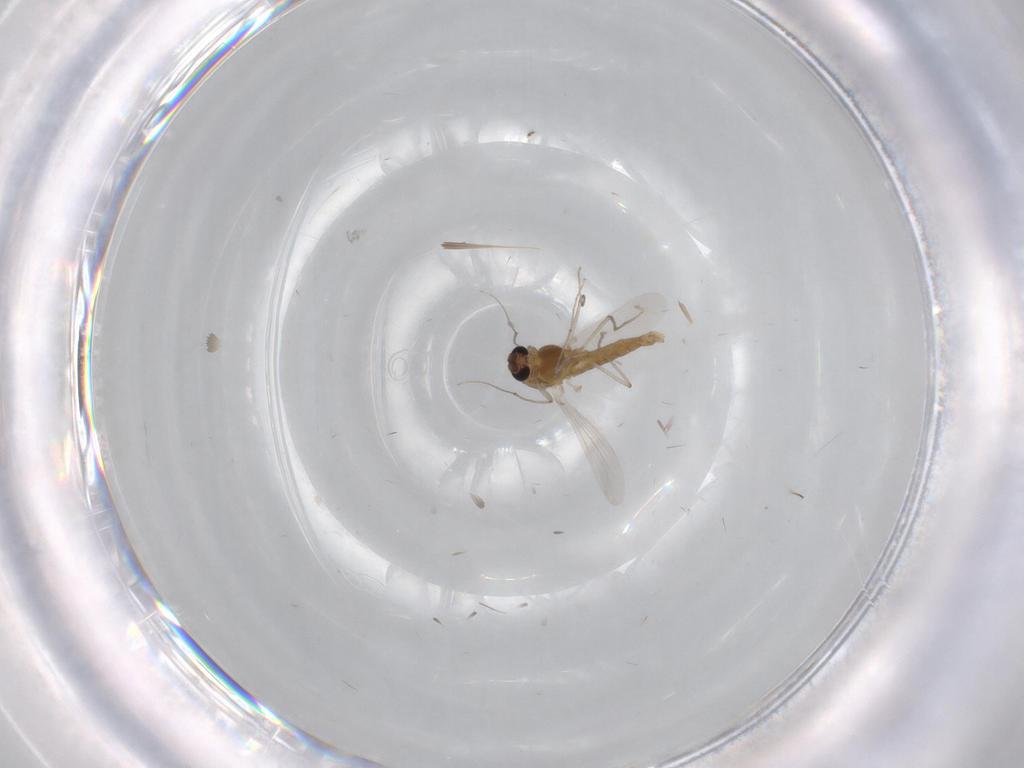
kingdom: Animalia
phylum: Arthropoda
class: Insecta
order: Diptera
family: Chironomidae
